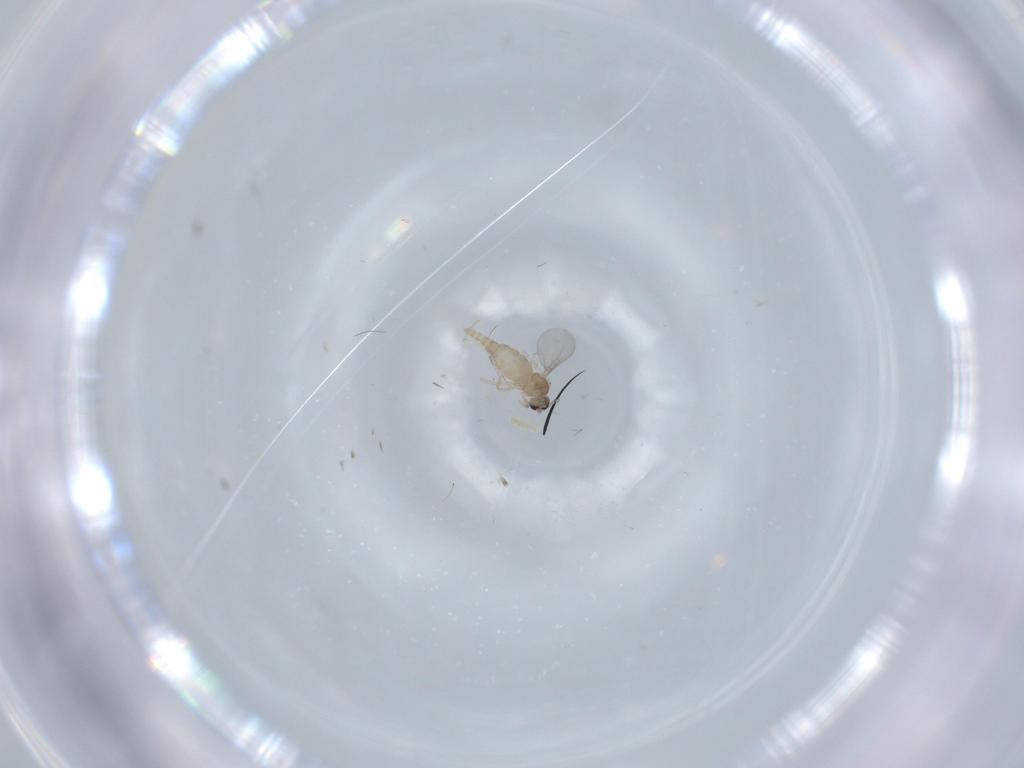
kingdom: Animalia
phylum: Arthropoda
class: Insecta
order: Diptera
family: Cecidomyiidae
